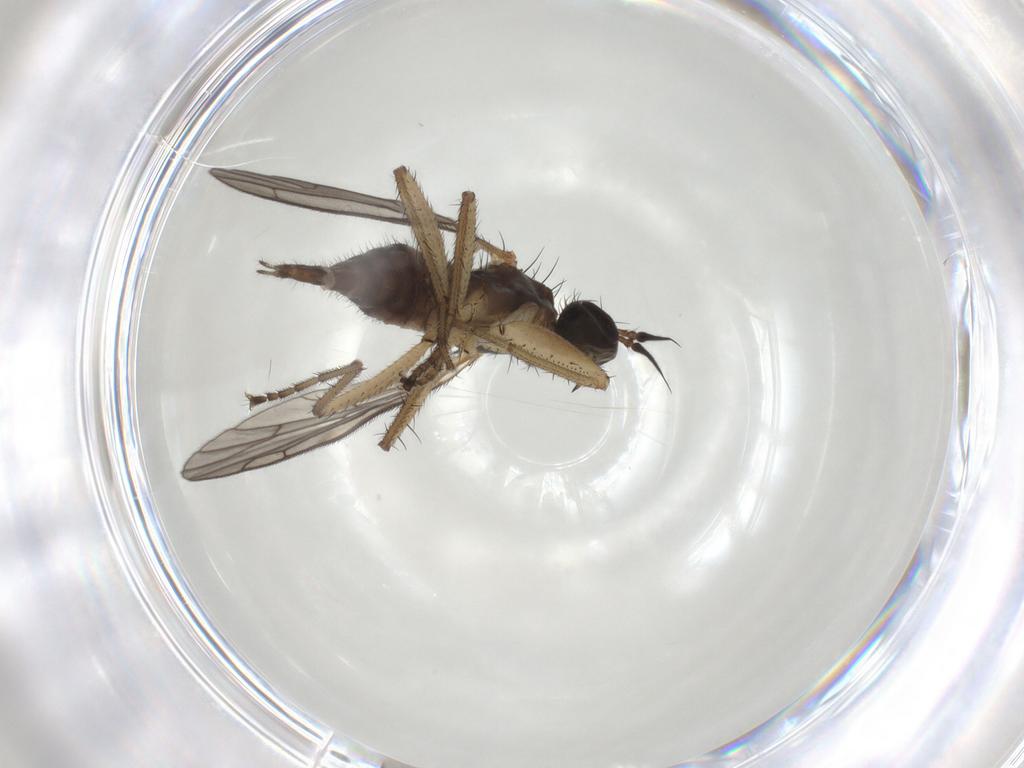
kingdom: Animalia
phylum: Arthropoda
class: Insecta
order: Diptera
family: Empididae
